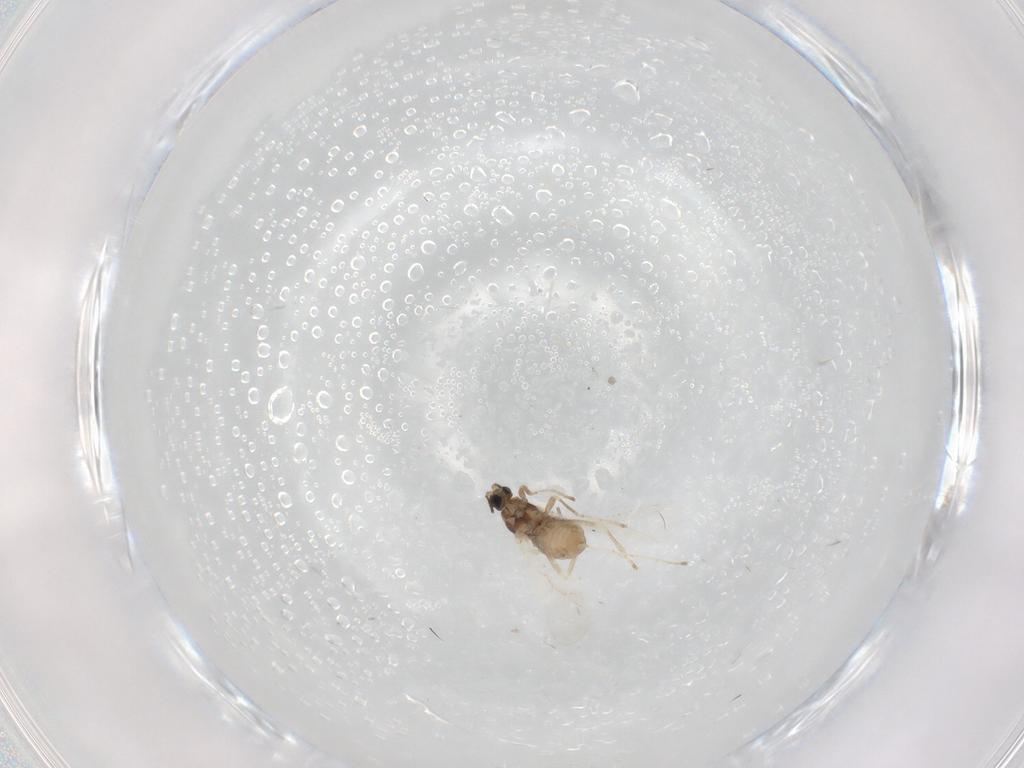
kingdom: Animalia
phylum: Arthropoda
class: Insecta
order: Diptera
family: Cecidomyiidae
